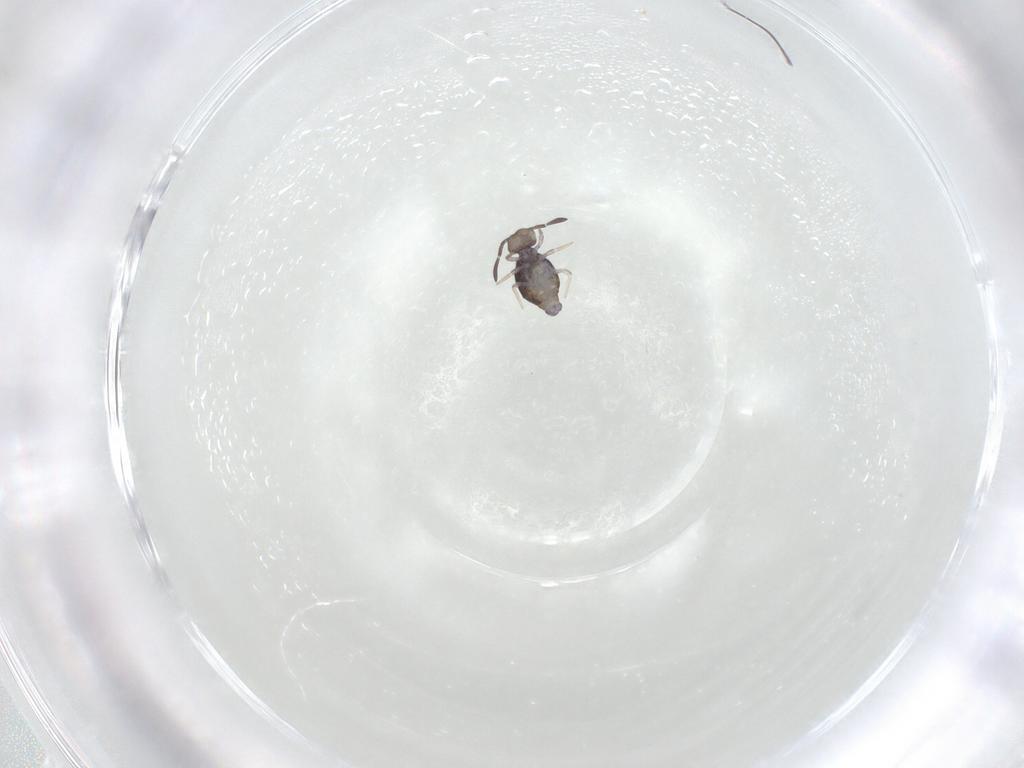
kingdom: Animalia
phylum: Arthropoda
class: Collembola
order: Symphypleona
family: Katiannidae
